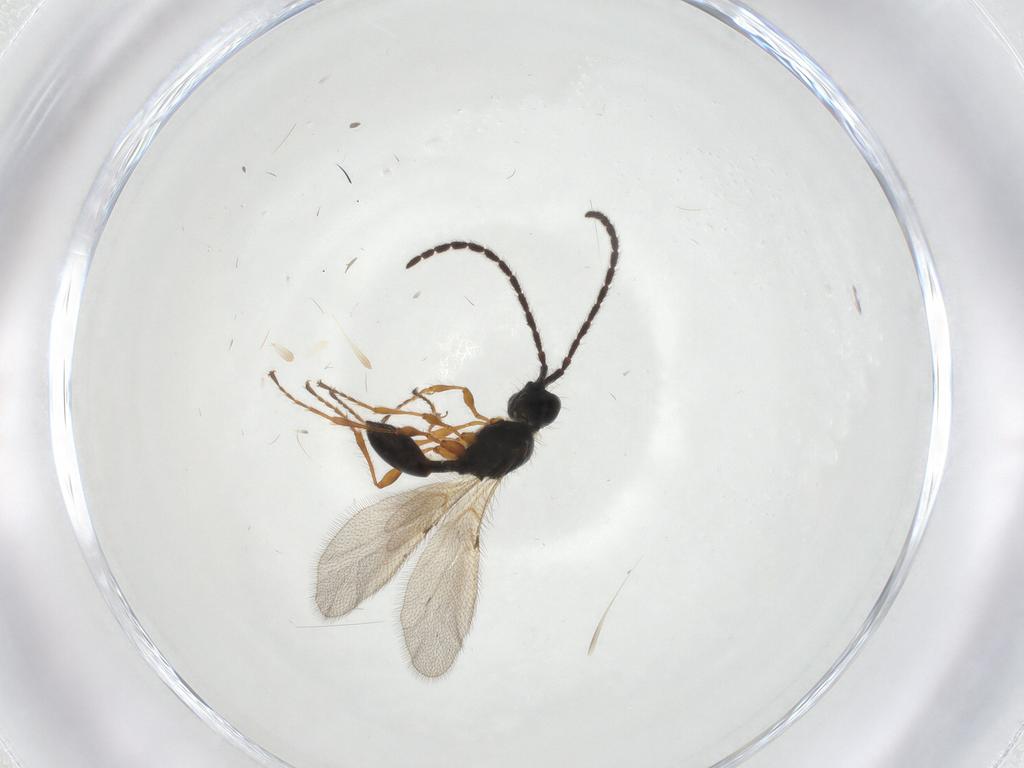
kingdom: Animalia
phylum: Arthropoda
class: Insecta
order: Hymenoptera
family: Diapriidae
